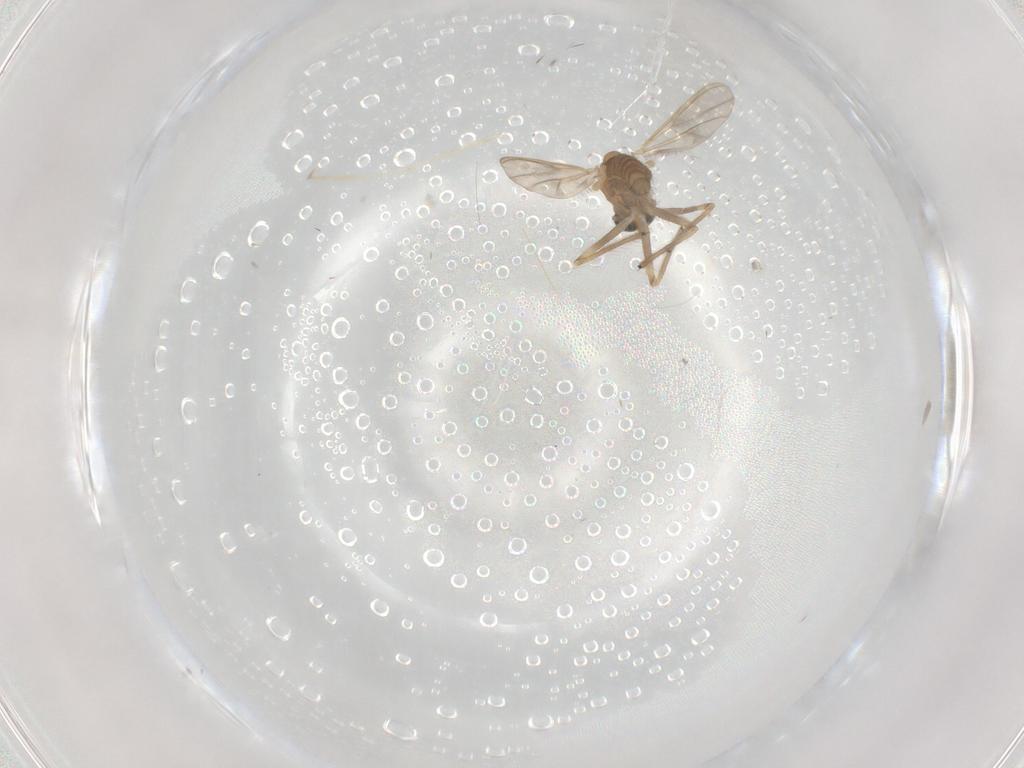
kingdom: Animalia
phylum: Arthropoda
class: Insecta
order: Diptera
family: Chironomidae
